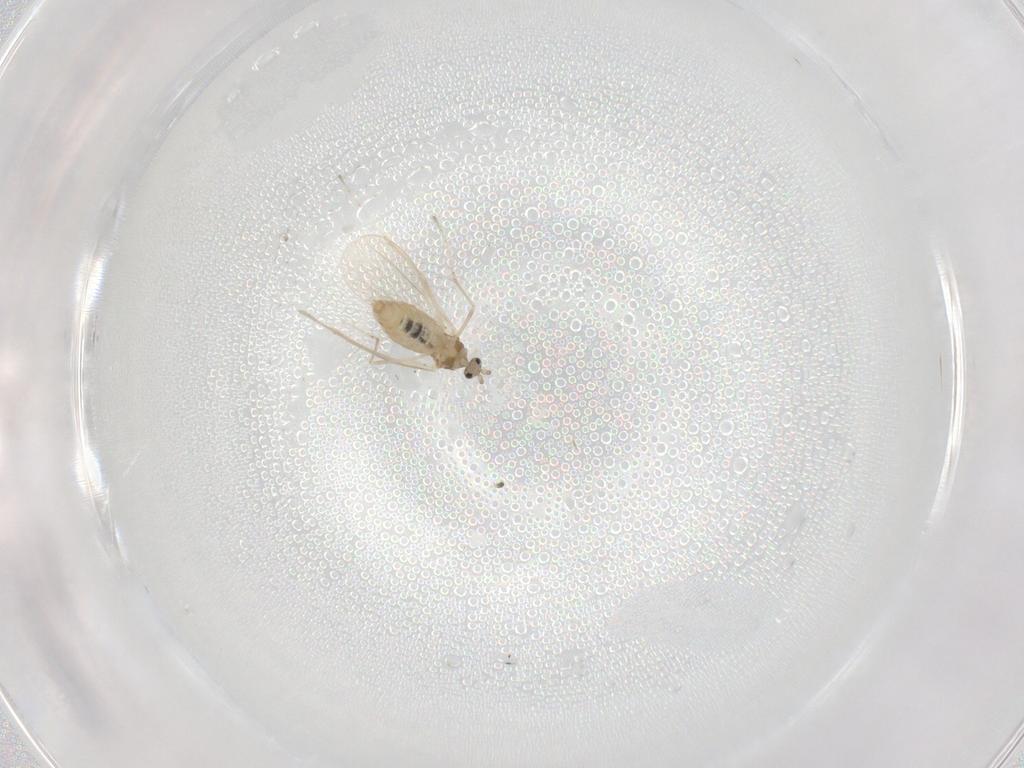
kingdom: Animalia
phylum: Arthropoda
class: Insecta
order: Diptera
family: Cecidomyiidae
